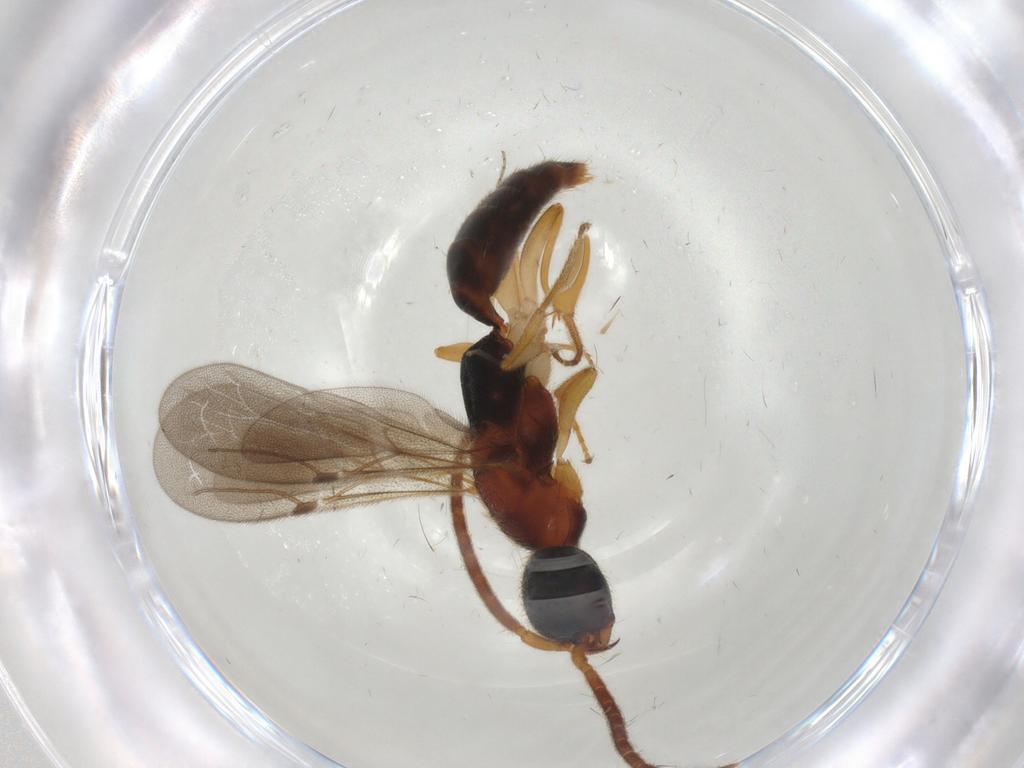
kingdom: Animalia
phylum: Arthropoda
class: Insecta
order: Hymenoptera
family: Bethylidae
